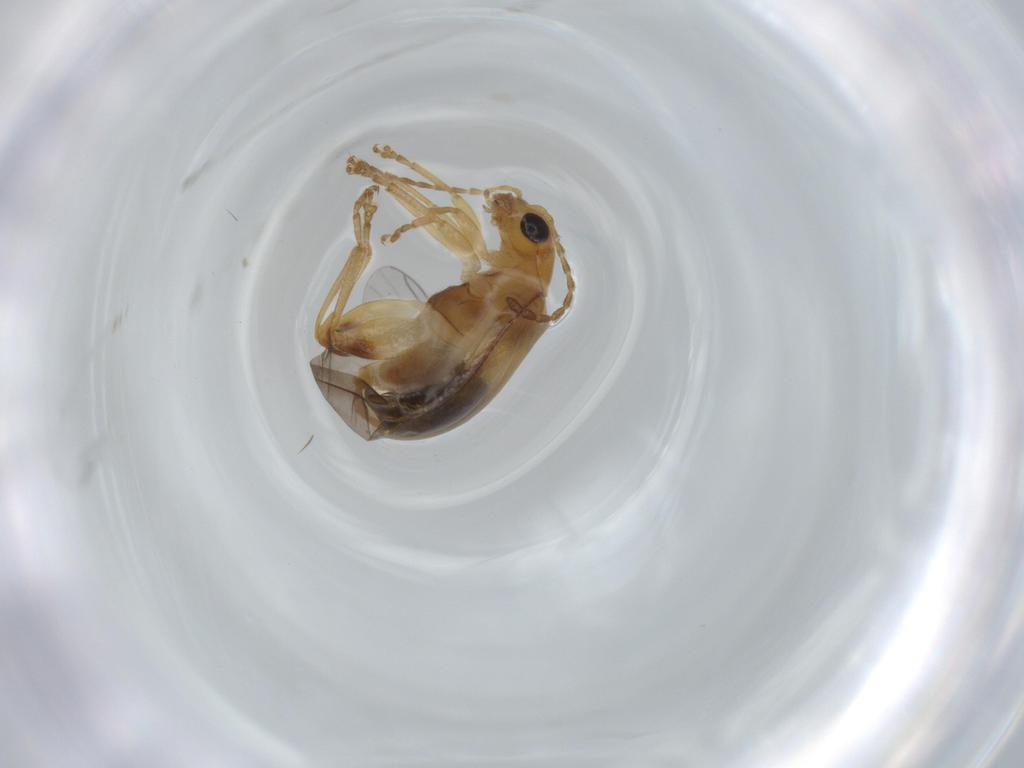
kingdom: Animalia
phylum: Arthropoda
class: Insecta
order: Coleoptera
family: Chrysomelidae
